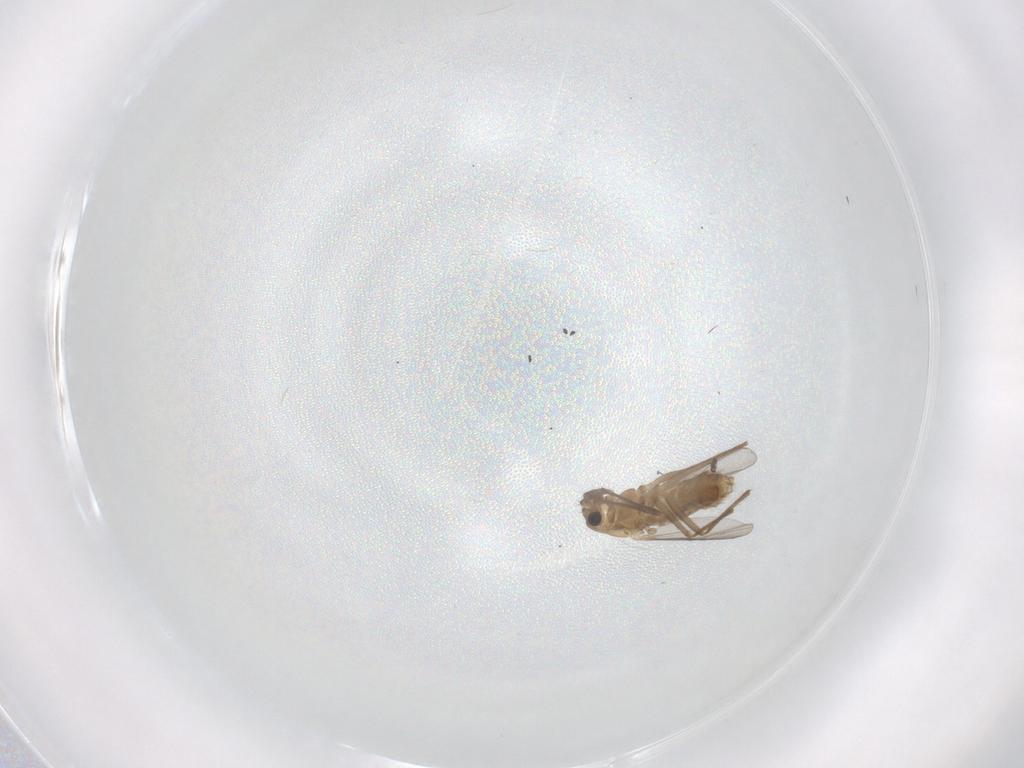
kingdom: Animalia
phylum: Arthropoda
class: Insecta
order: Diptera
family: Chironomidae
